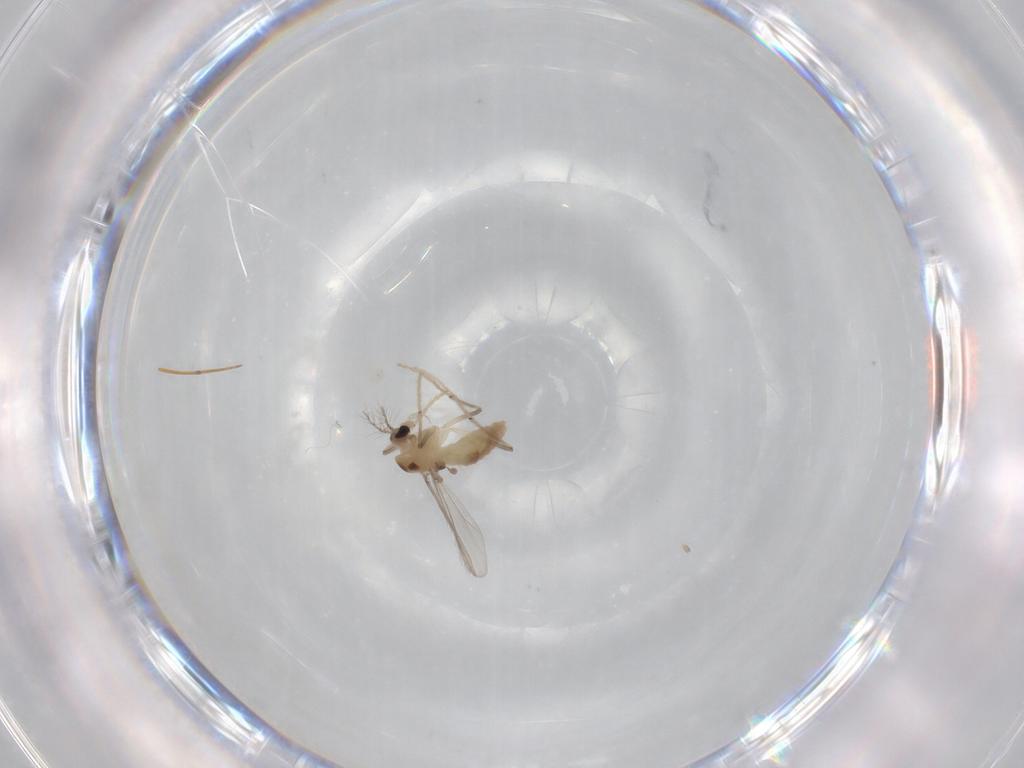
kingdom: Animalia
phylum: Arthropoda
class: Insecta
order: Diptera
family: Chironomidae
